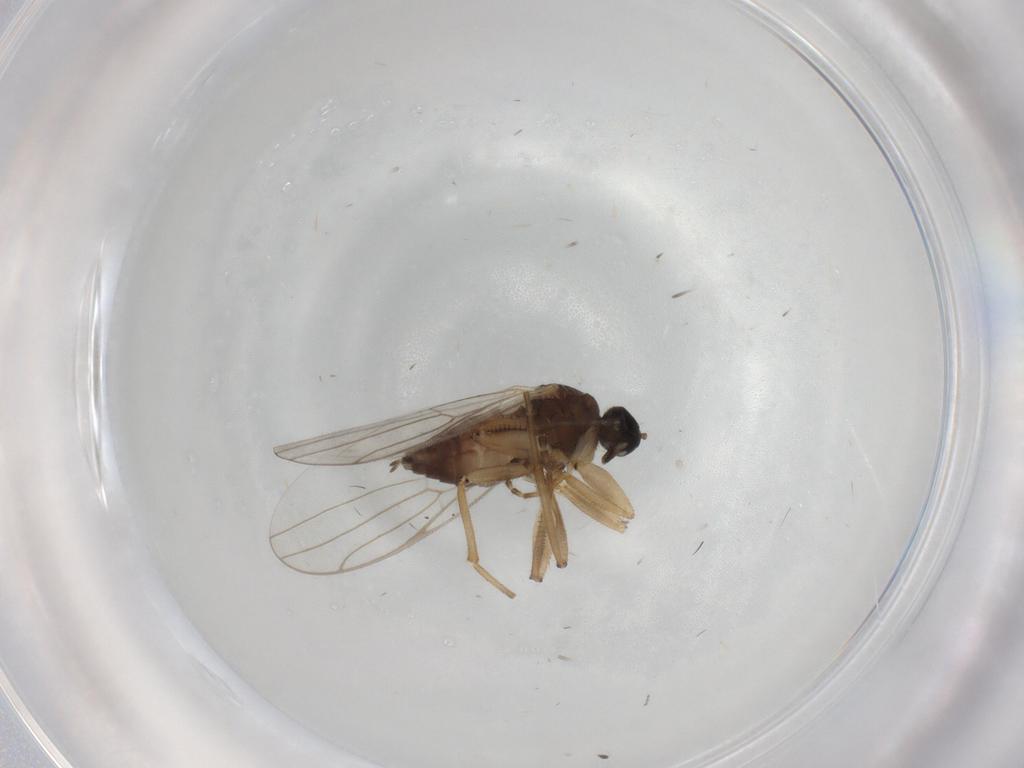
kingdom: Animalia
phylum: Arthropoda
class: Insecta
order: Diptera
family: Hybotidae
